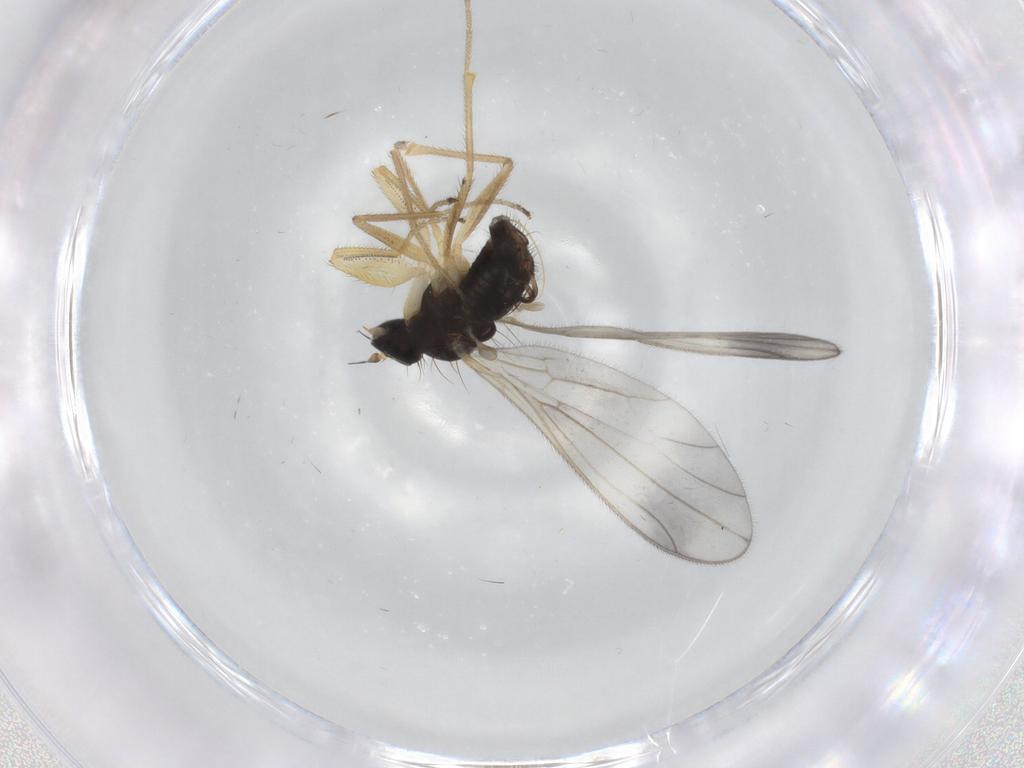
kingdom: Animalia
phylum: Arthropoda
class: Insecta
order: Diptera
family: Empididae
